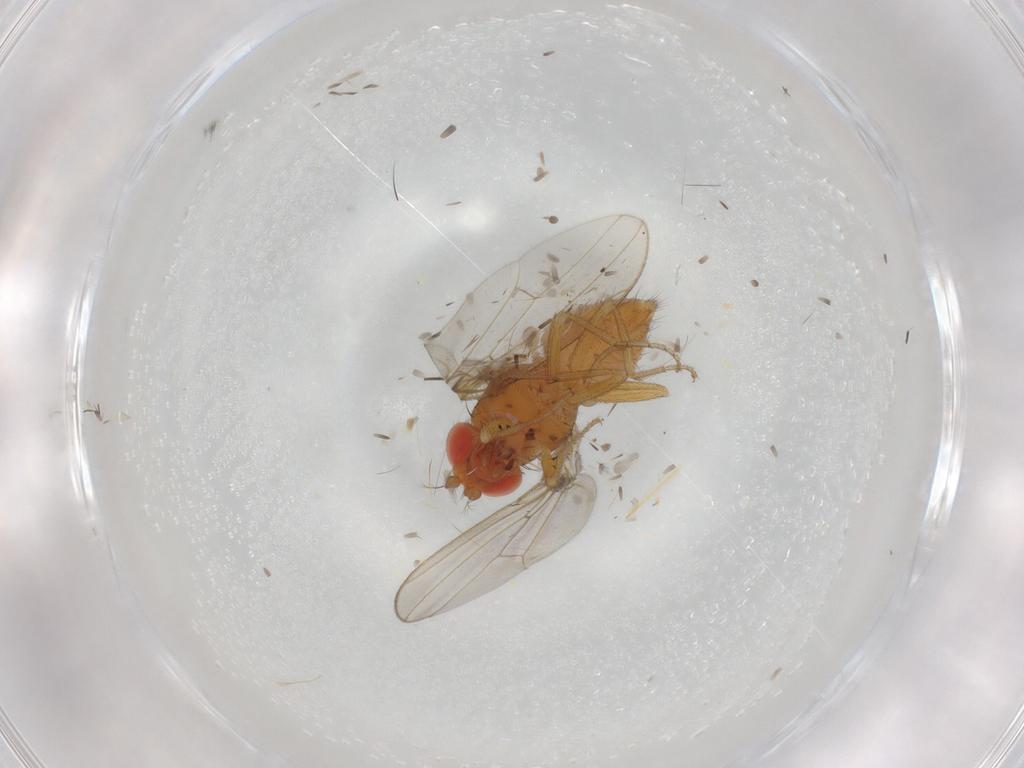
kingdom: Animalia
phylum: Arthropoda
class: Insecta
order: Diptera
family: Drosophilidae
